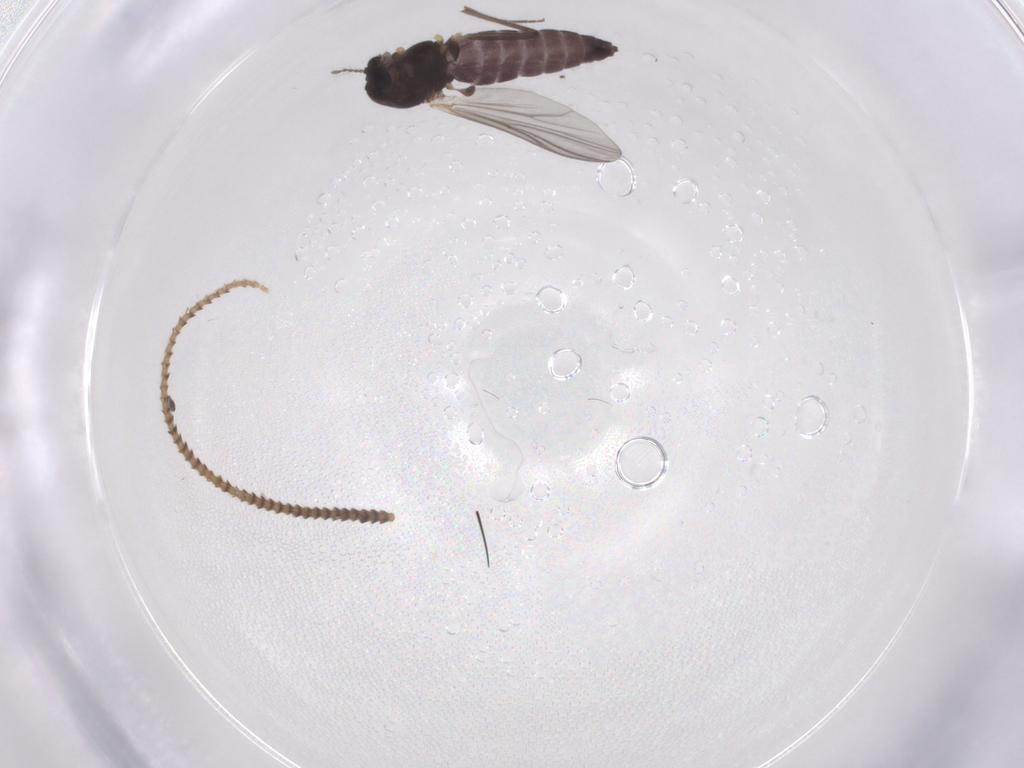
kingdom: Animalia
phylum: Arthropoda
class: Insecta
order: Diptera
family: Chironomidae
